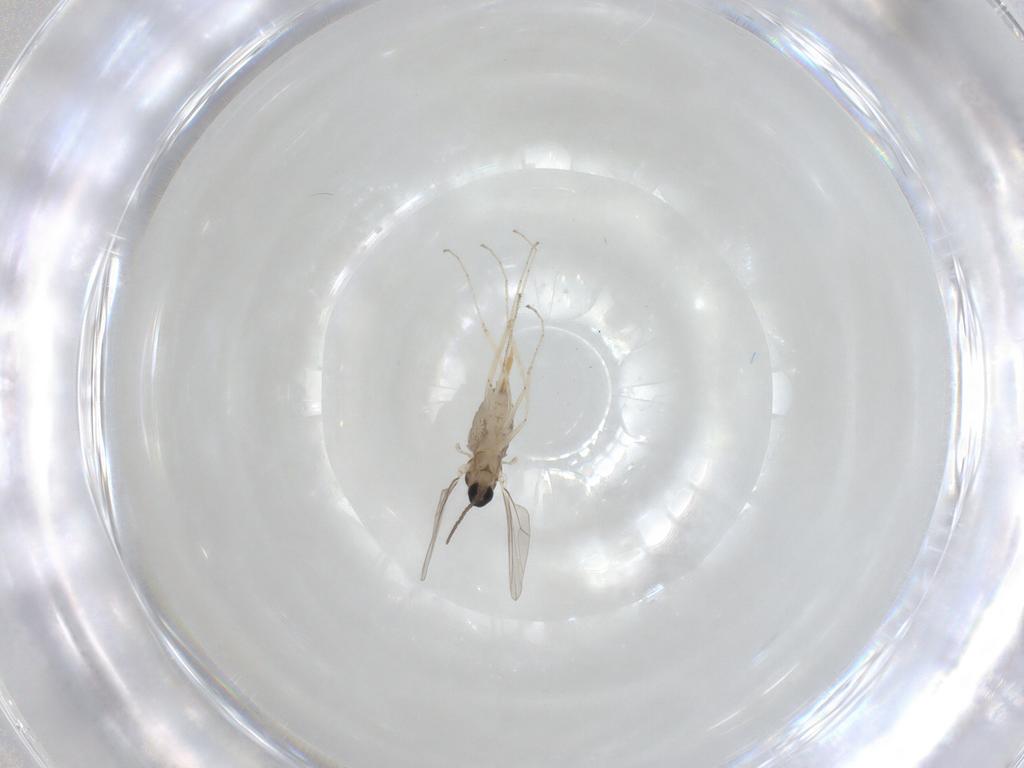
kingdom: Animalia
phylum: Arthropoda
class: Insecta
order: Diptera
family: Cecidomyiidae
